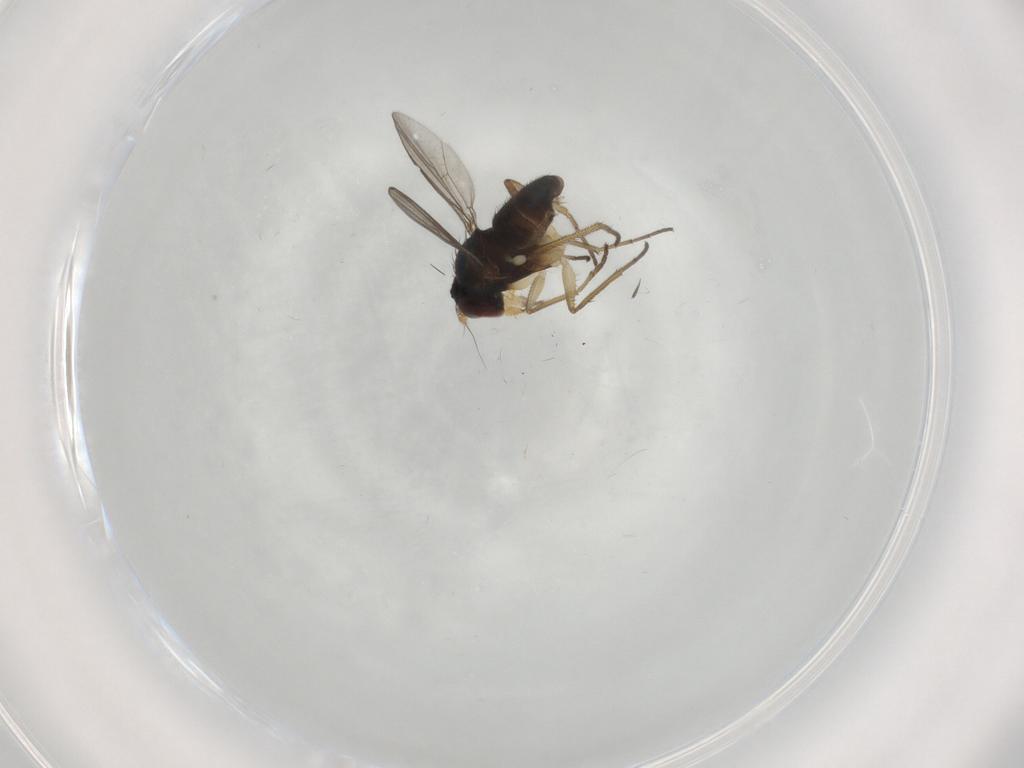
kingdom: Animalia
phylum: Arthropoda
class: Insecta
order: Diptera
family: Dolichopodidae
